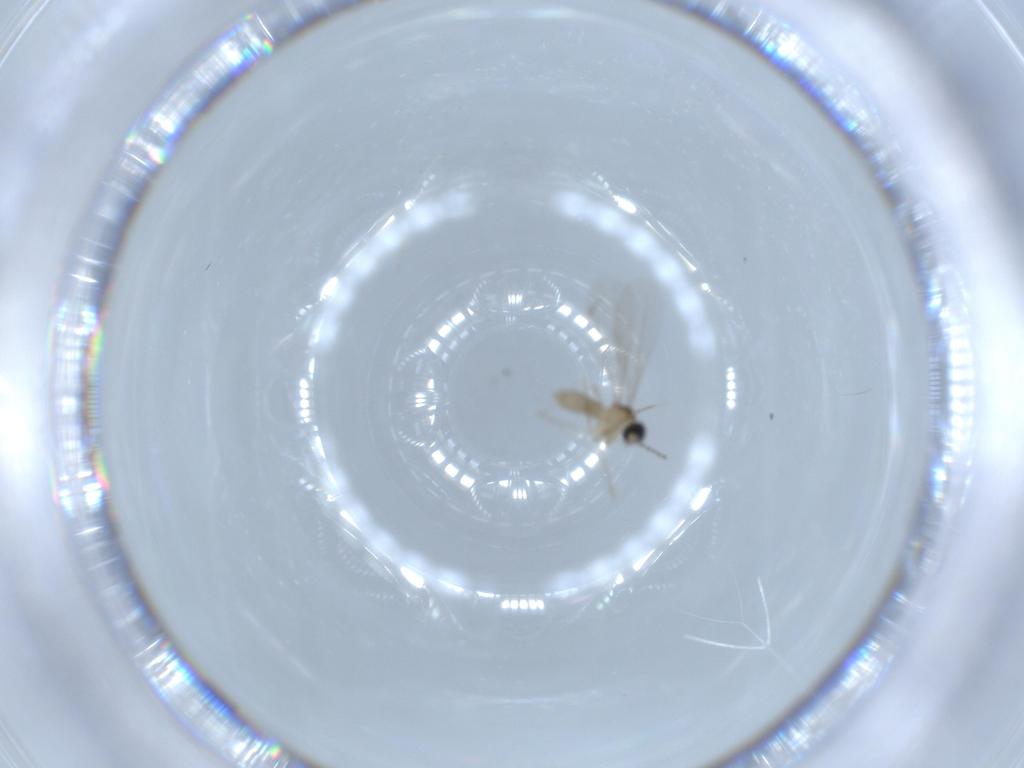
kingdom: Animalia
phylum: Arthropoda
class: Insecta
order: Diptera
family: Cecidomyiidae
